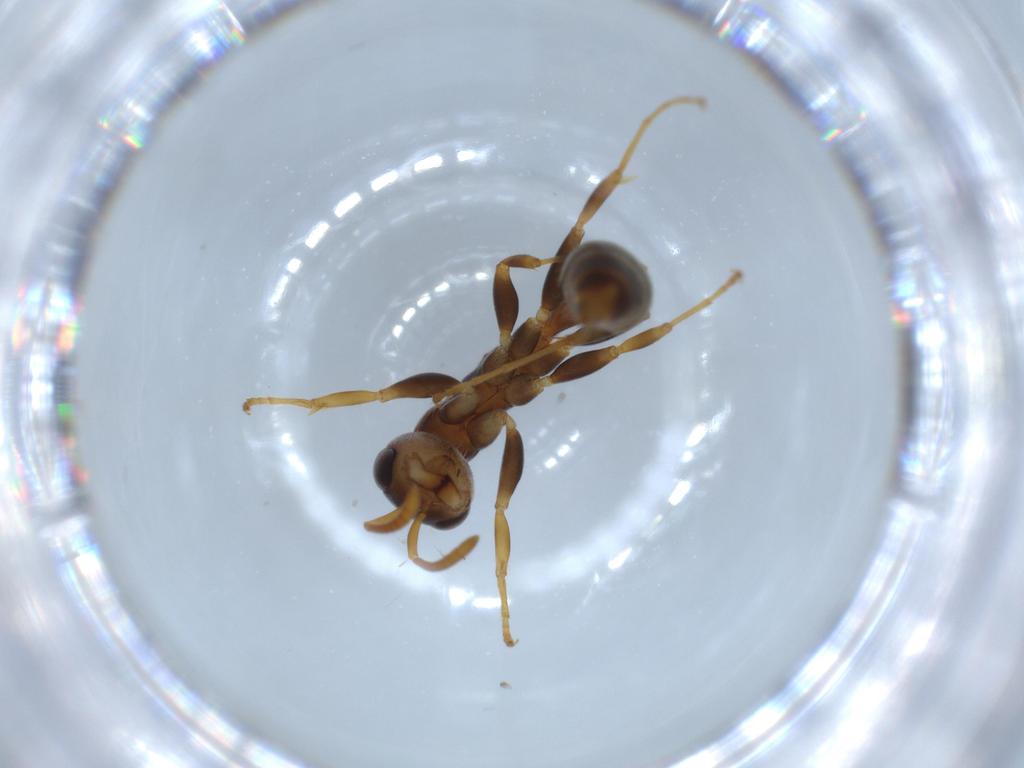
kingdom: Animalia
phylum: Arthropoda
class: Insecta
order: Hymenoptera
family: Formicidae
